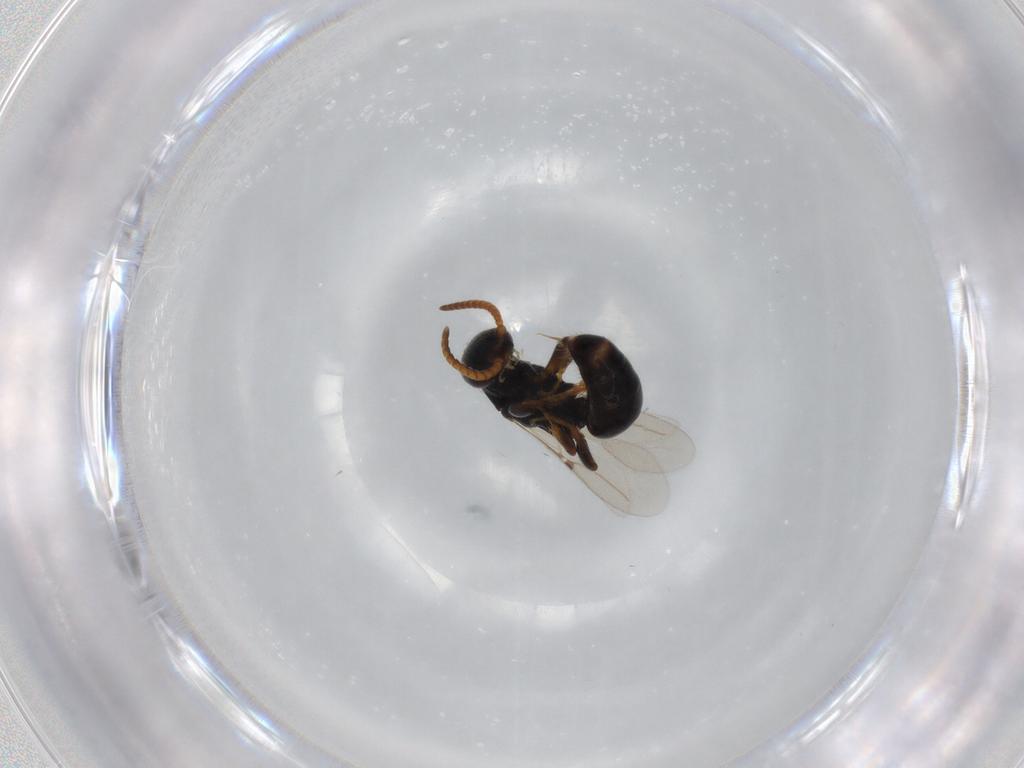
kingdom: Animalia
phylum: Arthropoda
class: Insecta
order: Hymenoptera
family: Bethylidae
